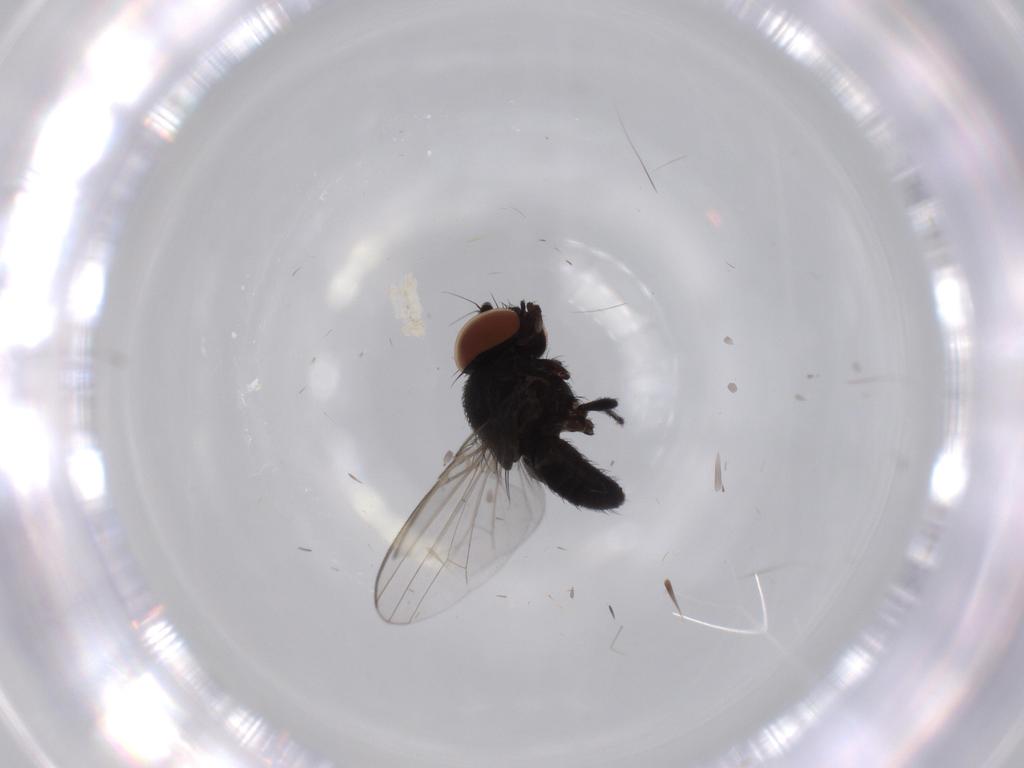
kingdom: Animalia
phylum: Arthropoda
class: Insecta
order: Diptera
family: Milichiidae
